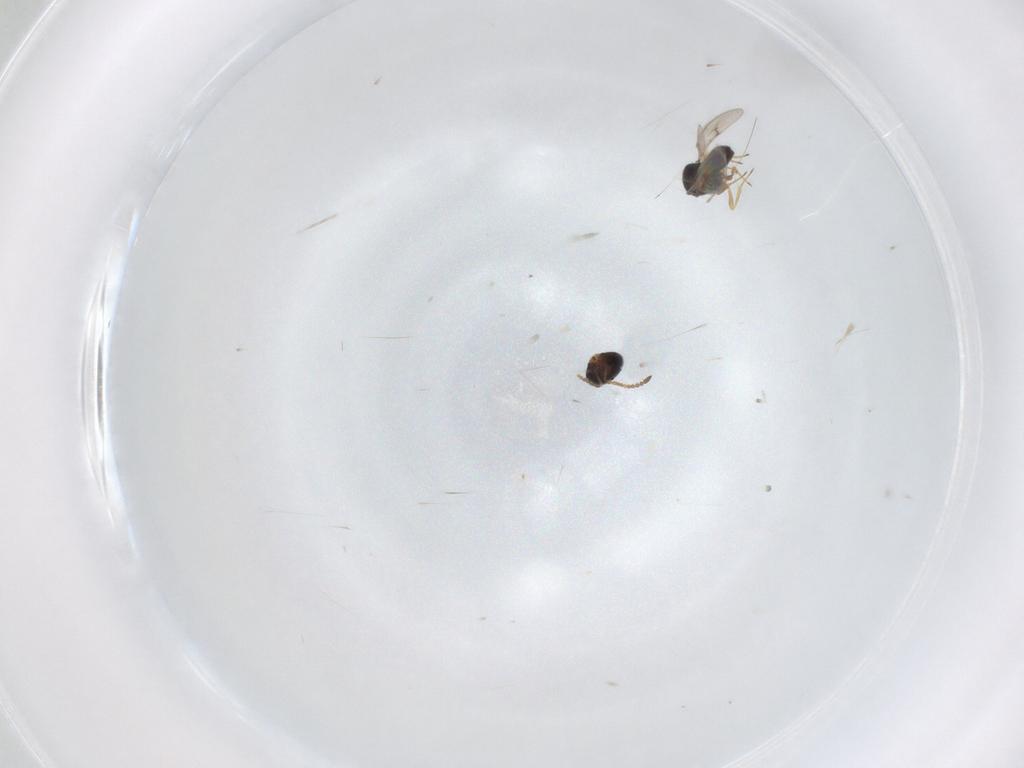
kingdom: Animalia
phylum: Arthropoda
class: Insecta
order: Hymenoptera
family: Scelionidae
